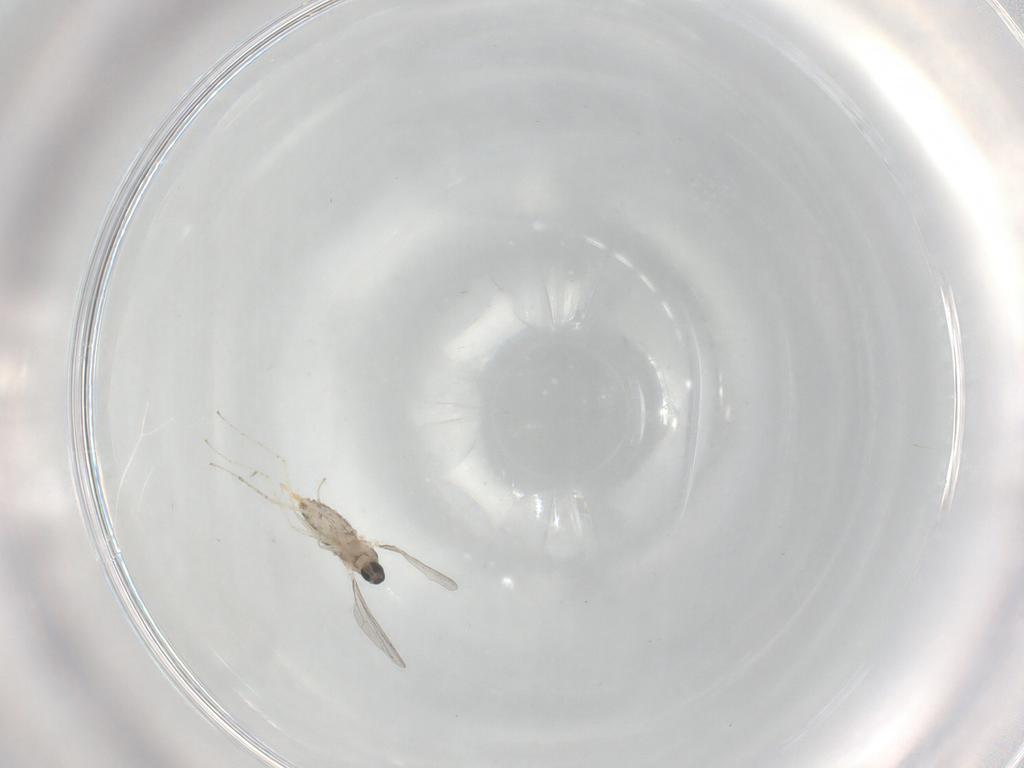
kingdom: Animalia
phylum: Arthropoda
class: Insecta
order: Diptera
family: Cecidomyiidae
